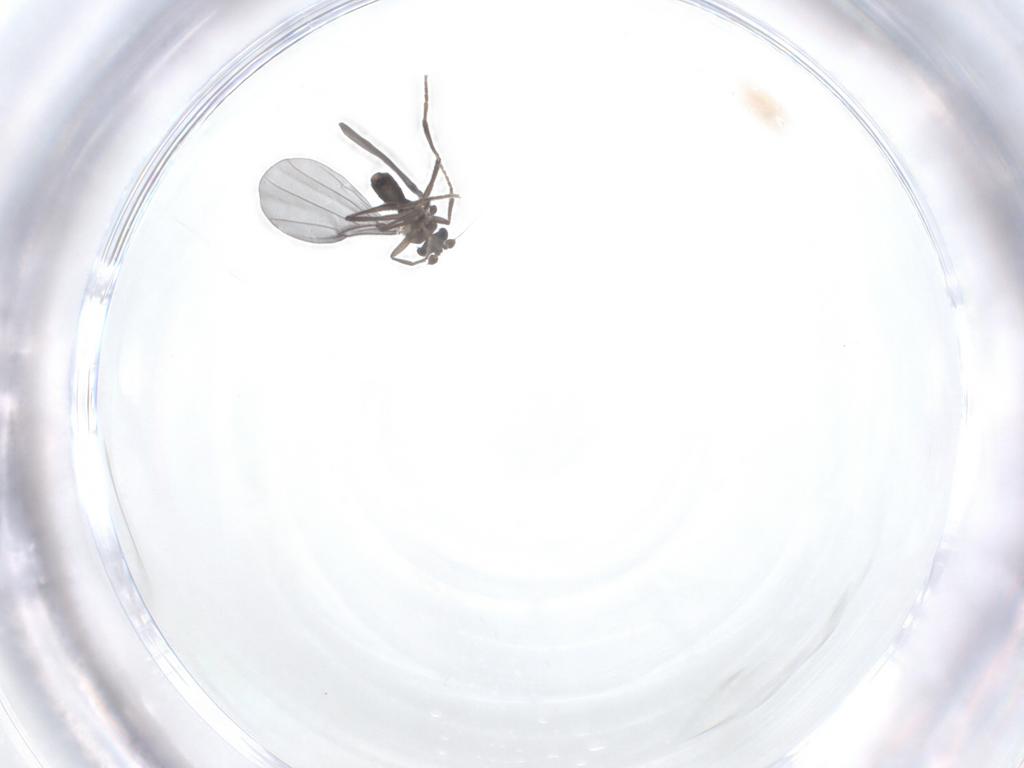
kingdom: Animalia
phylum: Arthropoda
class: Insecta
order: Diptera
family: Phoridae
